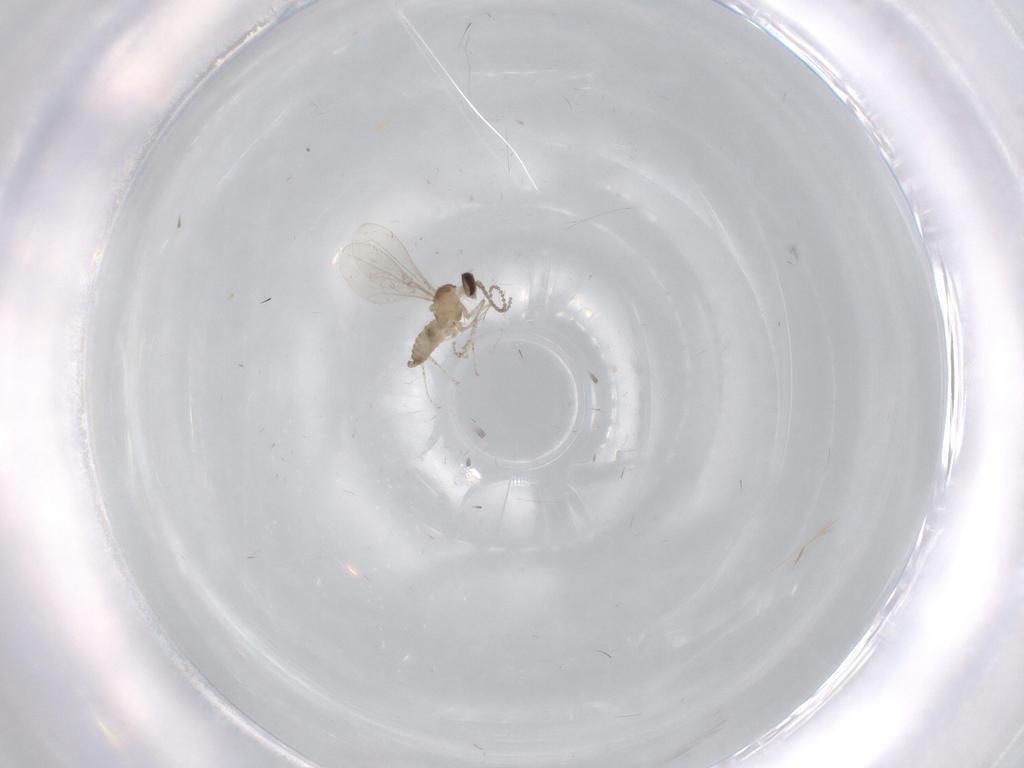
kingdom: Animalia
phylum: Arthropoda
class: Insecta
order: Diptera
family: Cecidomyiidae
